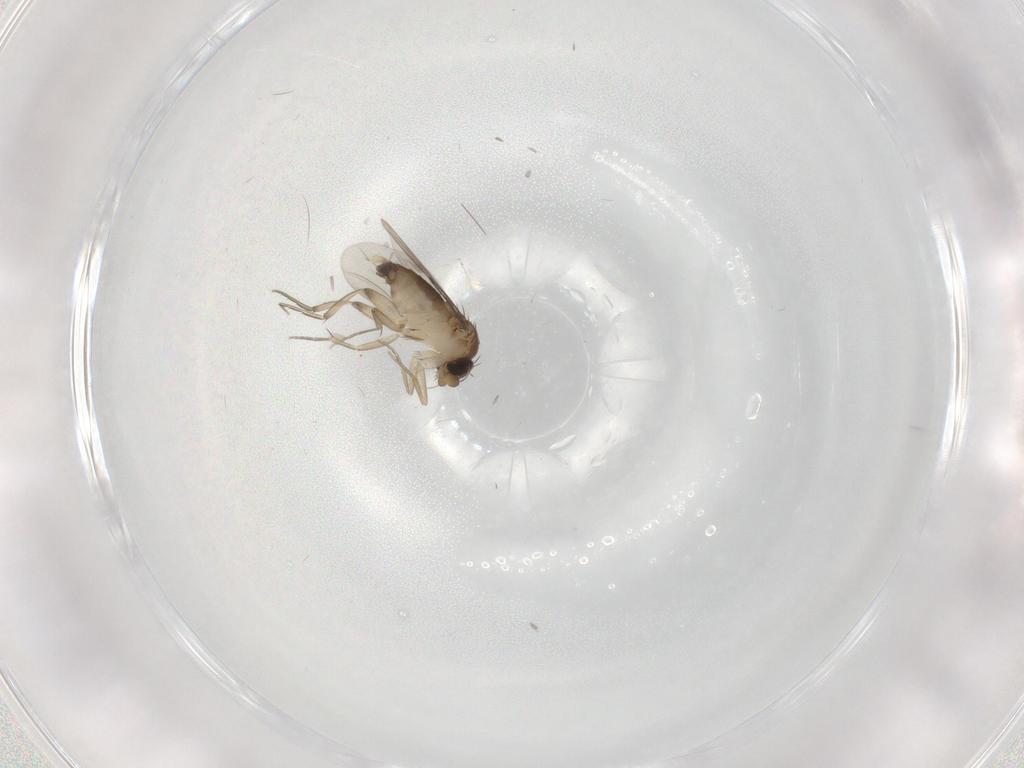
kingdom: Animalia
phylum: Arthropoda
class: Insecta
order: Diptera
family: Phoridae
